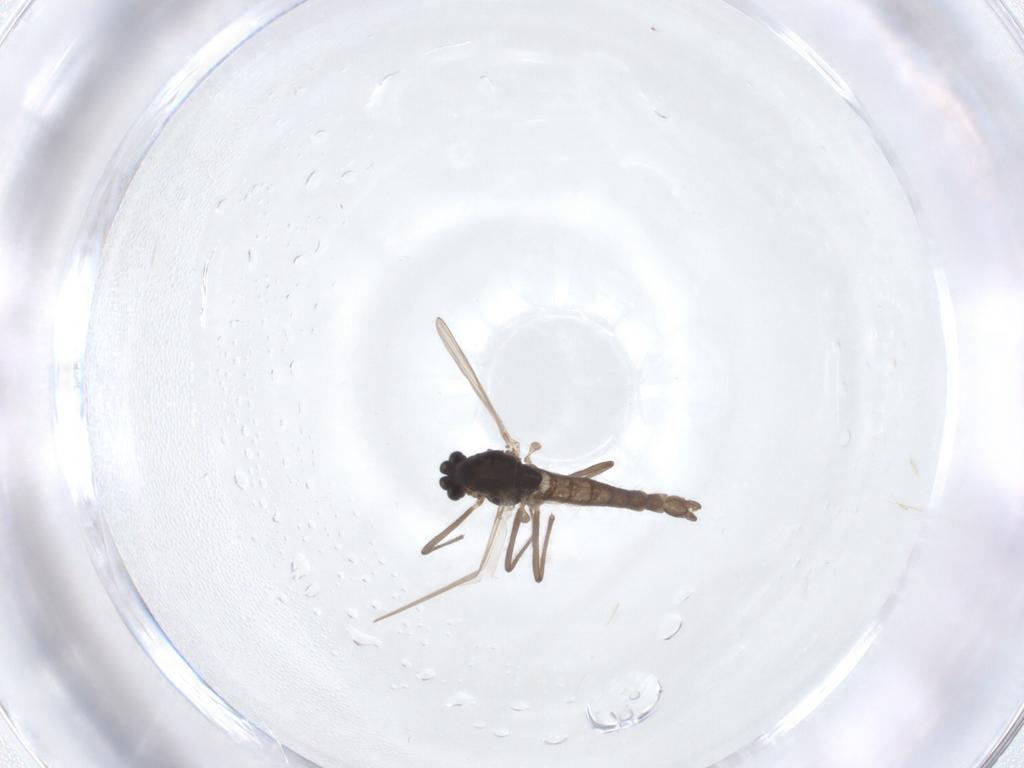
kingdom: Animalia
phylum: Arthropoda
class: Insecta
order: Diptera
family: Chironomidae
